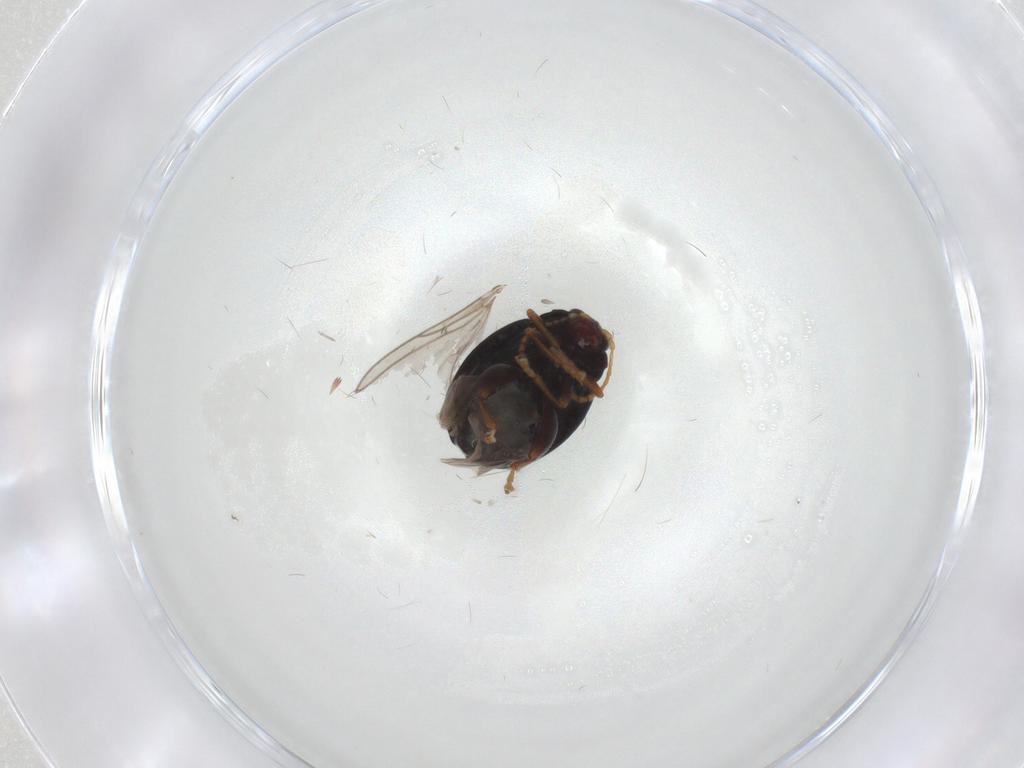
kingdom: Animalia
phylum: Arthropoda
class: Insecta
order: Coleoptera
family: Chrysomelidae
